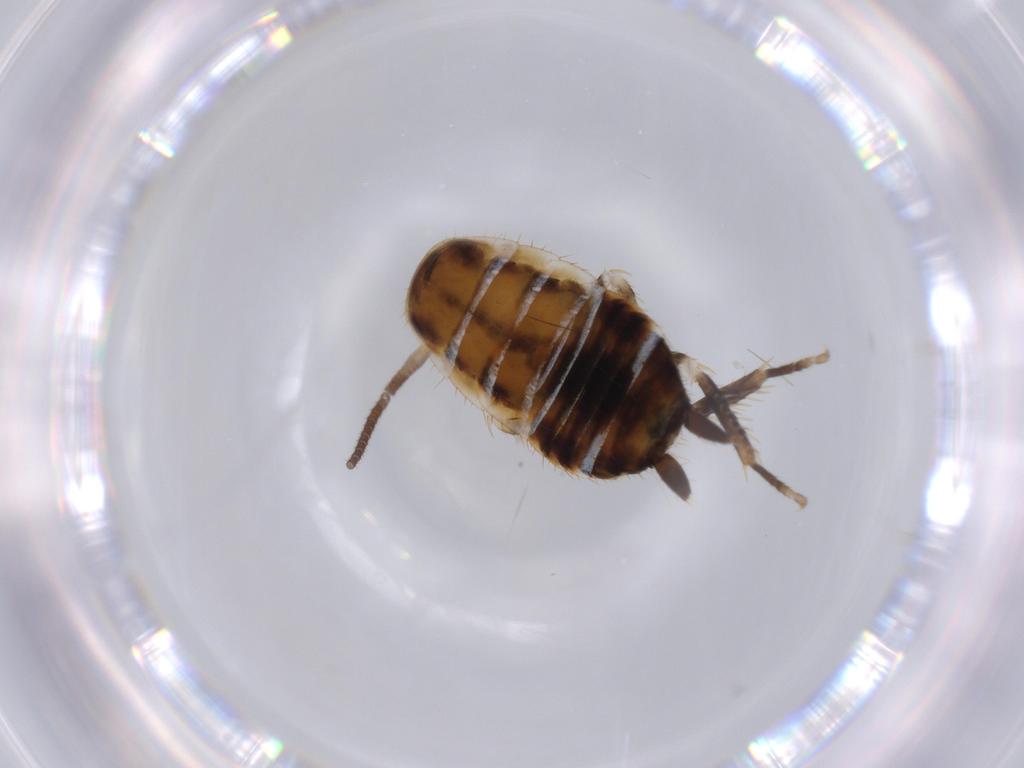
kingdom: Animalia
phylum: Arthropoda
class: Insecta
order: Blattodea
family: Ectobiidae
